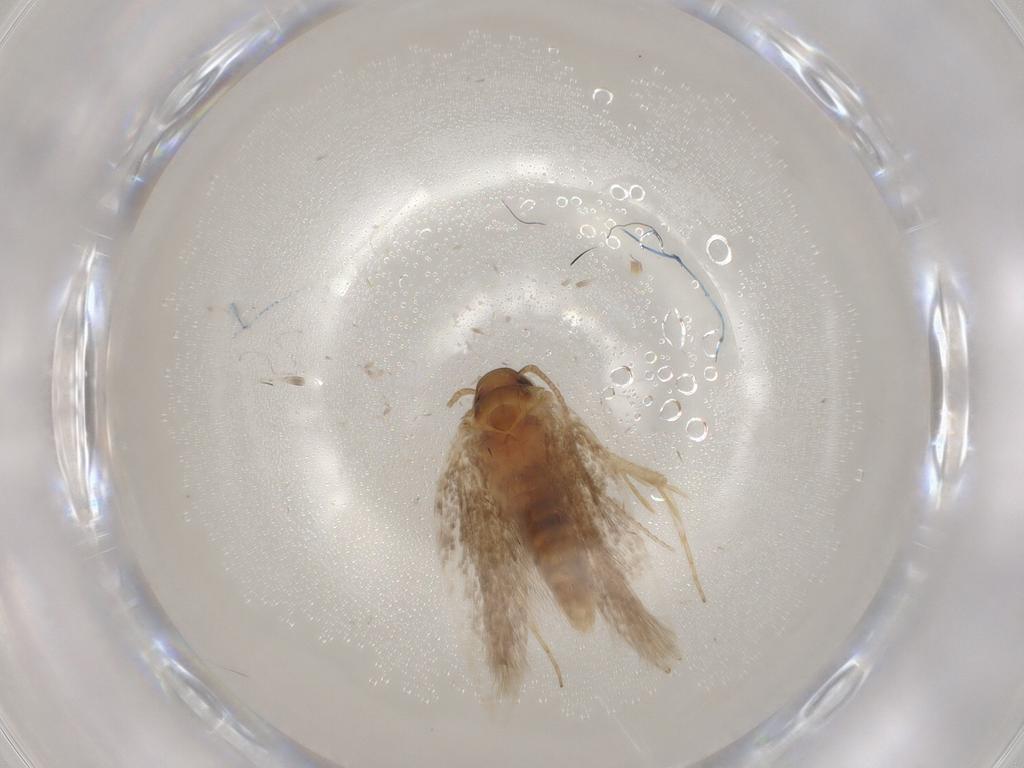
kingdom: Animalia
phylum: Arthropoda
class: Insecta
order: Lepidoptera
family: Gelechiidae
